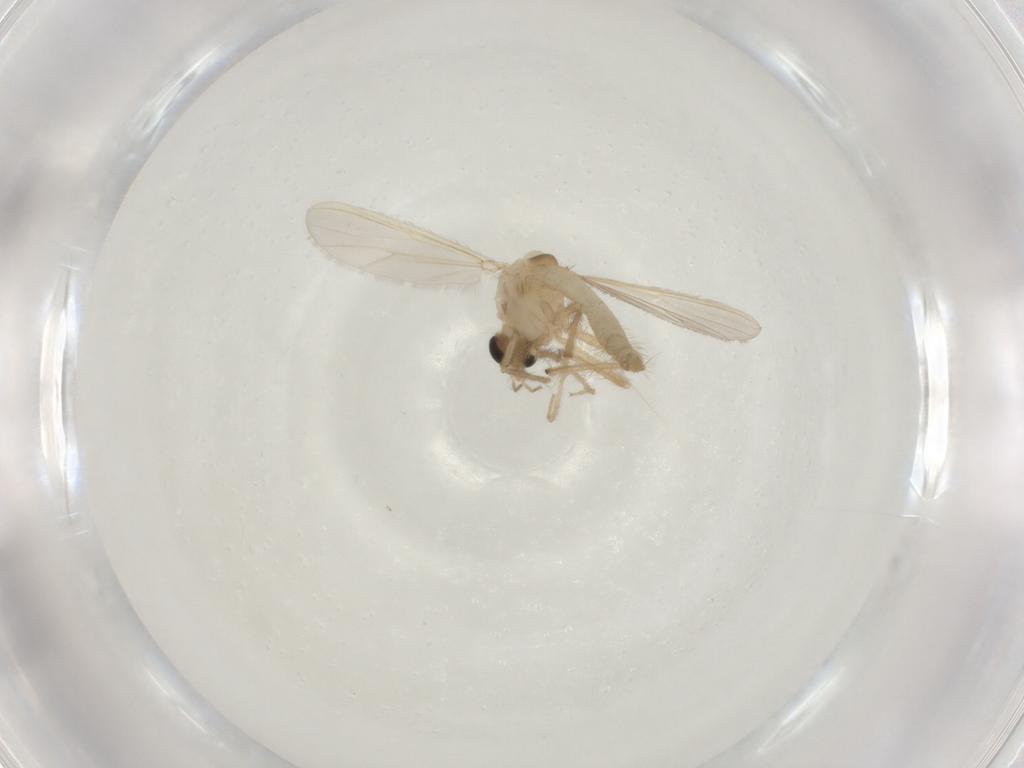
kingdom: Animalia
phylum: Arthropoda
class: Insecta
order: Diptera
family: Chironomidae
